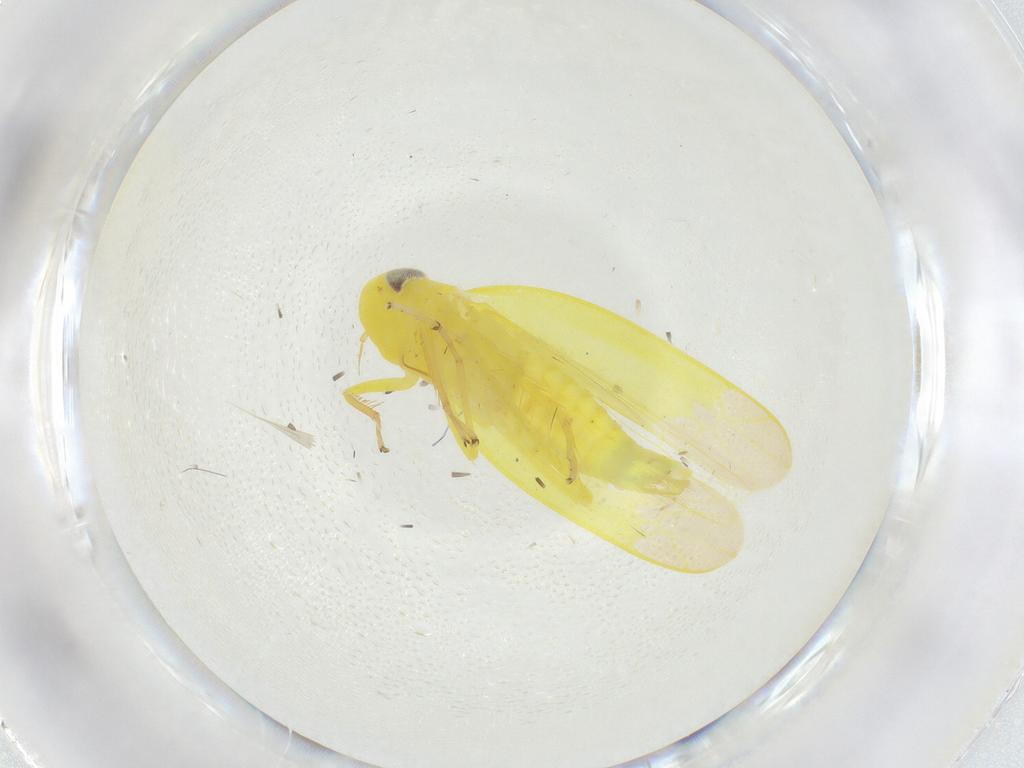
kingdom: Animalia
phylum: Arthropoda
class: Insecta
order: Hemiptera
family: Cicadellidae
